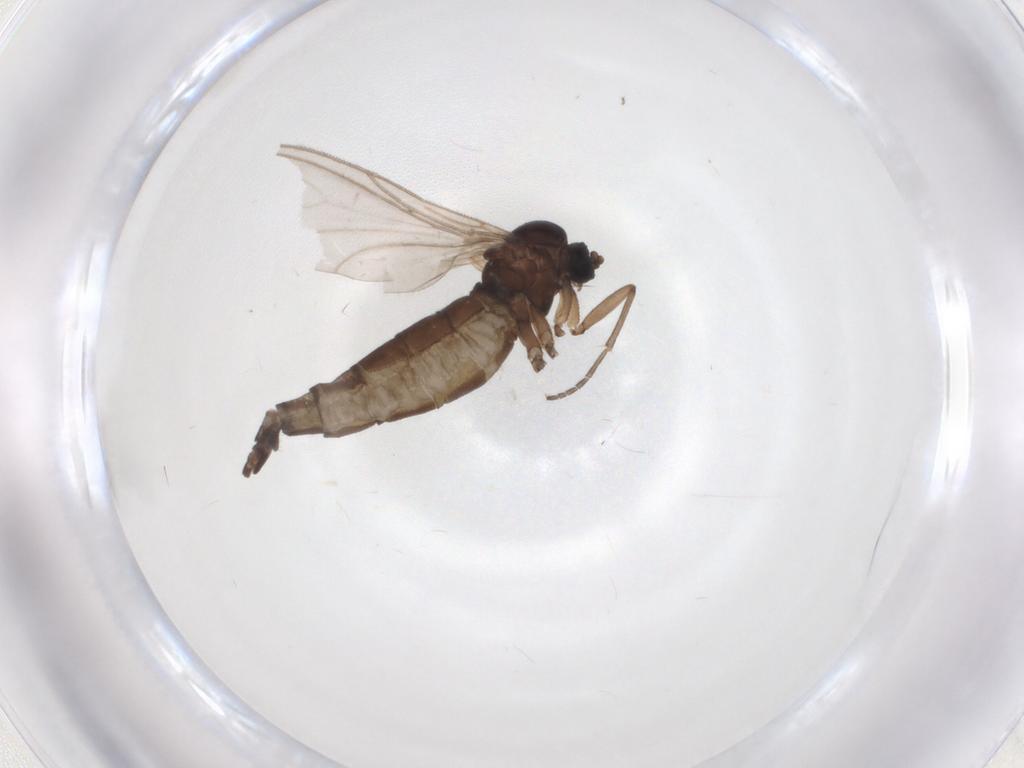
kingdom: Animalia
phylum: Arthropoda
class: Insecta
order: Diptera
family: Sciaridae
